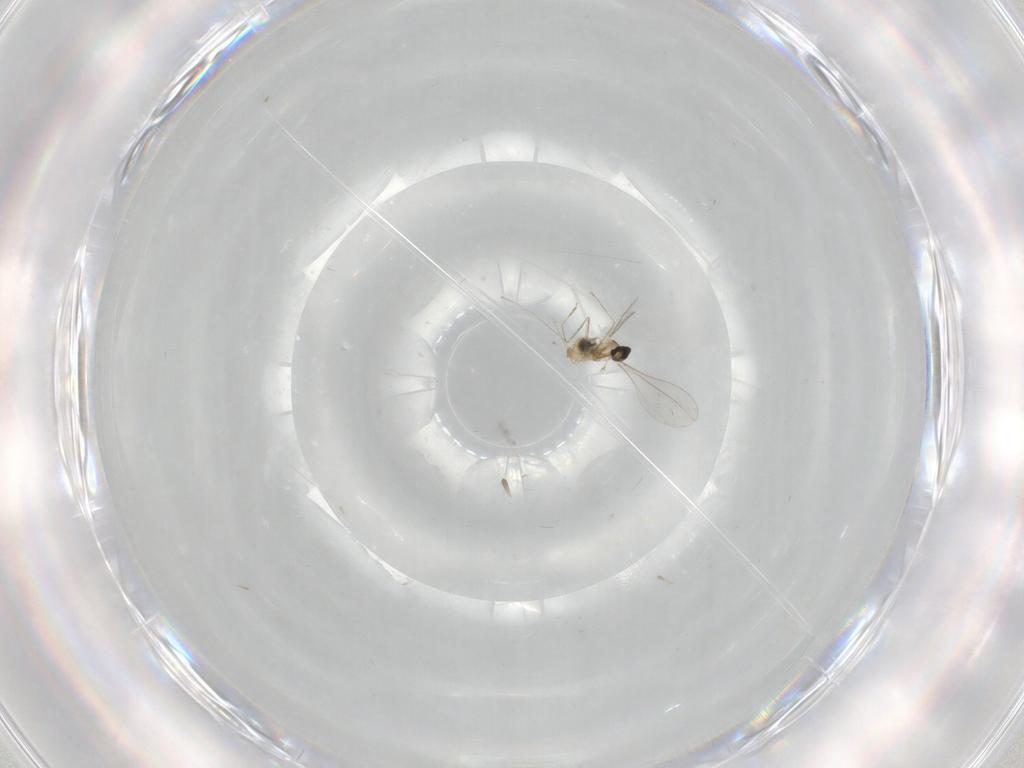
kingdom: Animalia
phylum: Arthropoda
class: Insecta
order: Diptera
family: Cecidomyiidae
